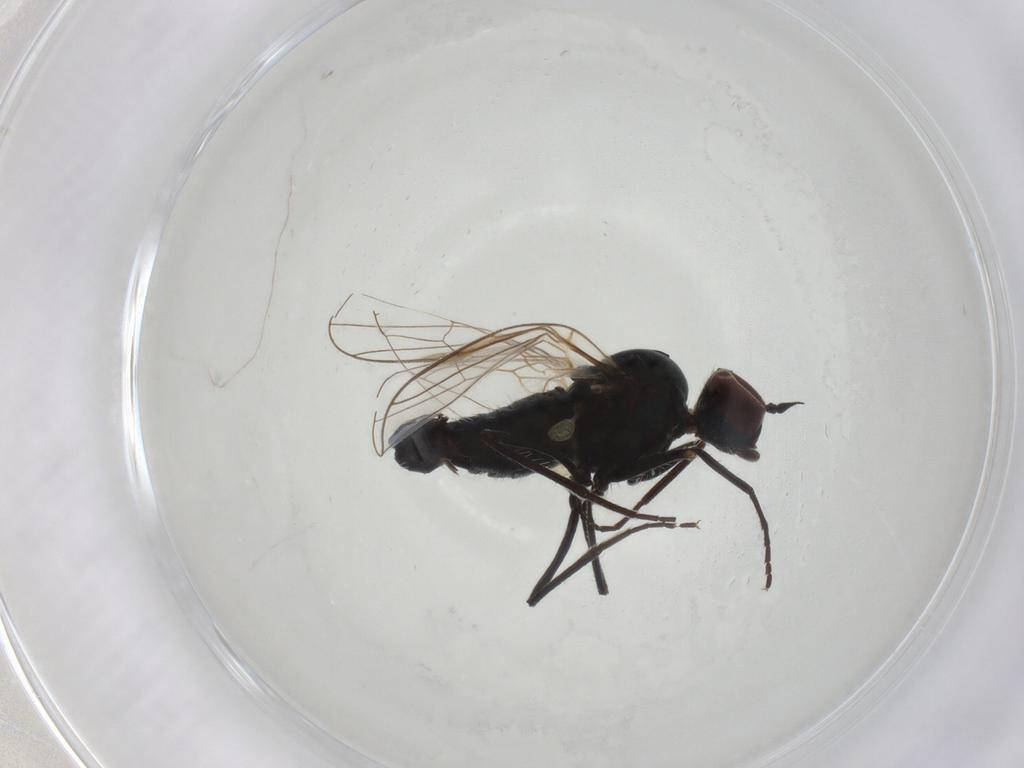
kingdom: Animalia
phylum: Arthropoda
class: Insecta
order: Diptera
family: Dolichopodidae
